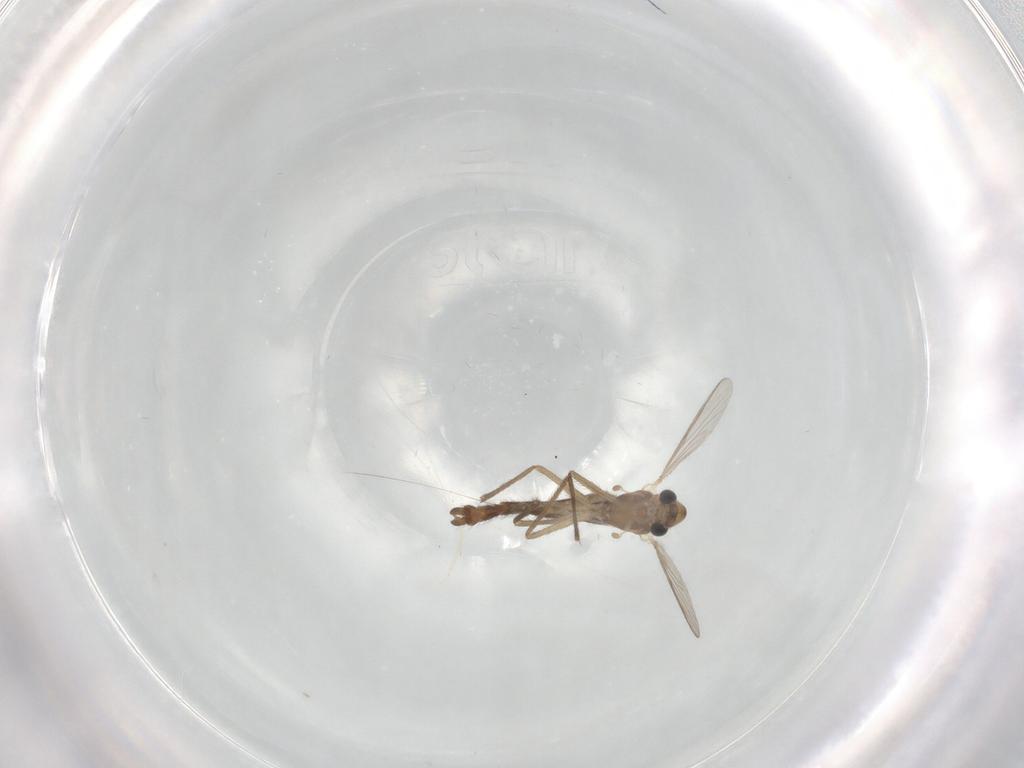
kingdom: Animalia
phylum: Arthropoda
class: Insecta
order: Diptera
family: Chironomidae
